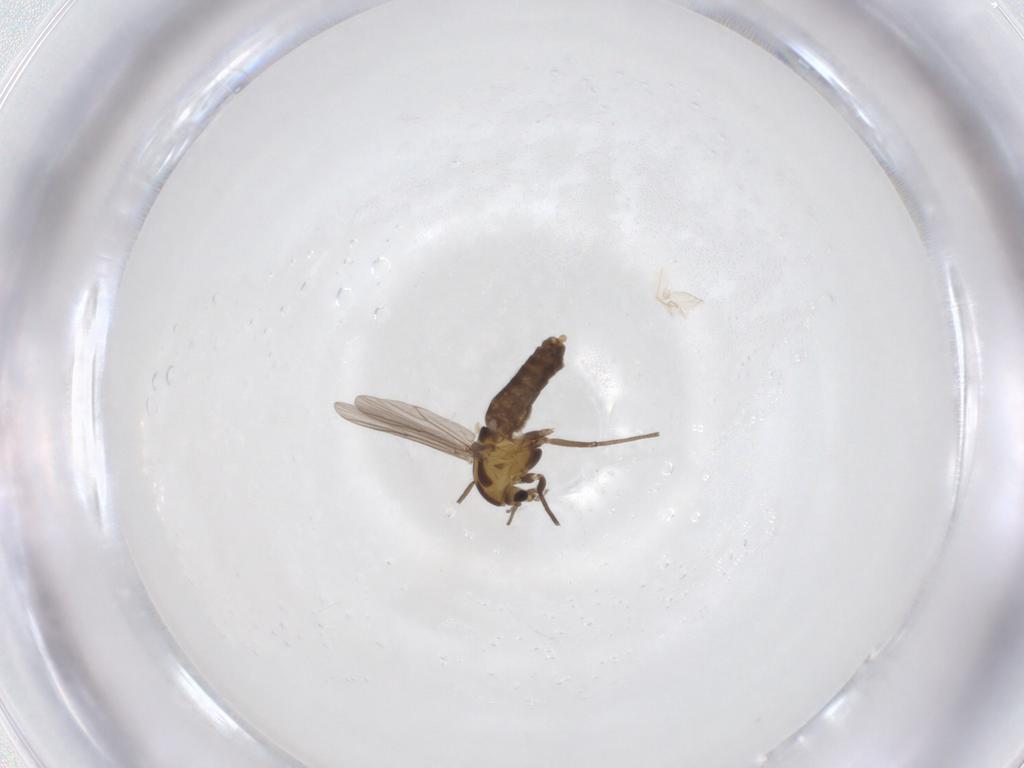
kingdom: Animalia
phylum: Arthropoda
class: Insecta
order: Diptera
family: Chironomidae
